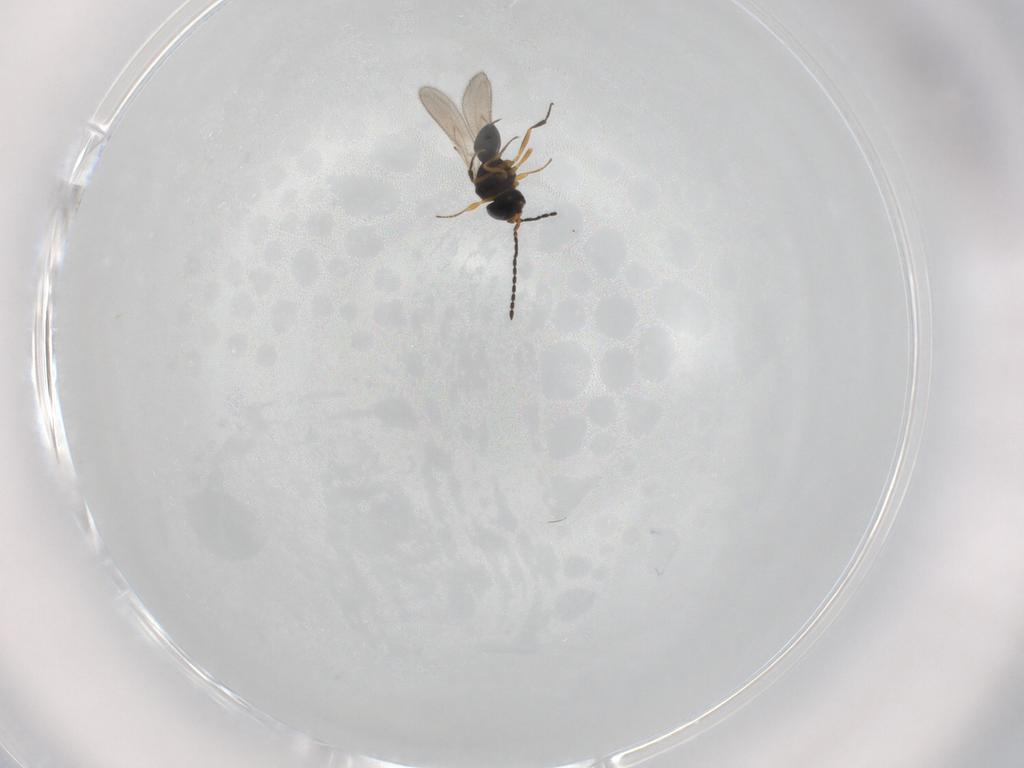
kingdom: Animalia
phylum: Arthropoda
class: Insecta
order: Hymenoptera
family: Scelionidae
